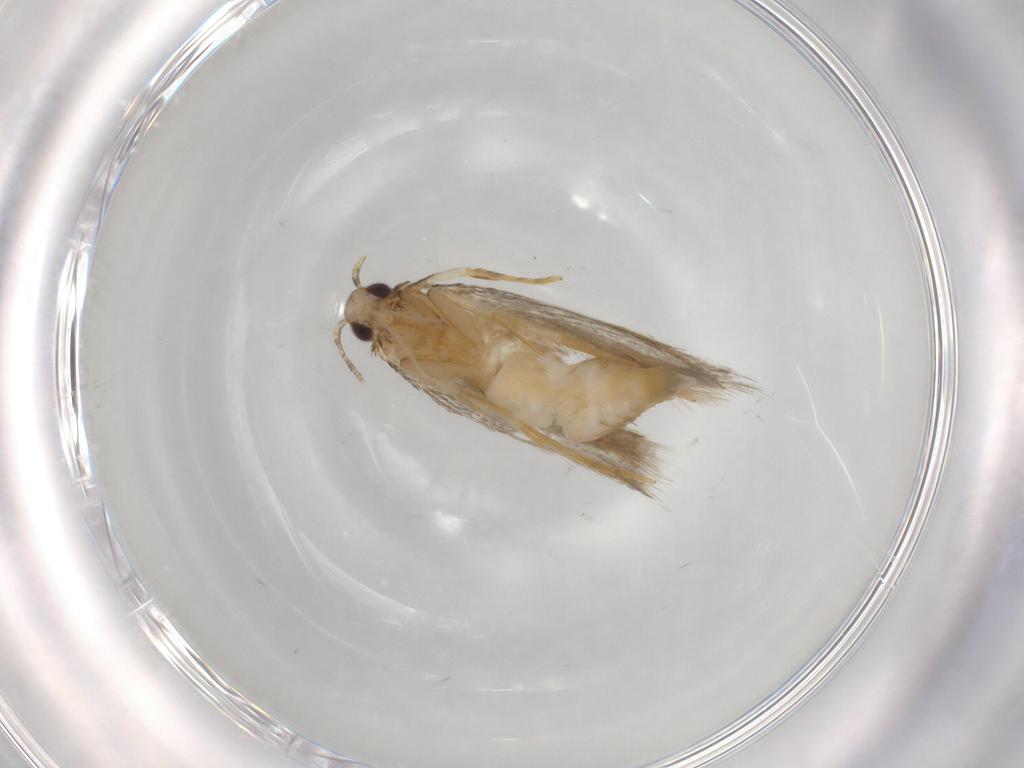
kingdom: Animalia
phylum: Arthropoda
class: Insecta
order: Lepidoptera
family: Autostichidae
